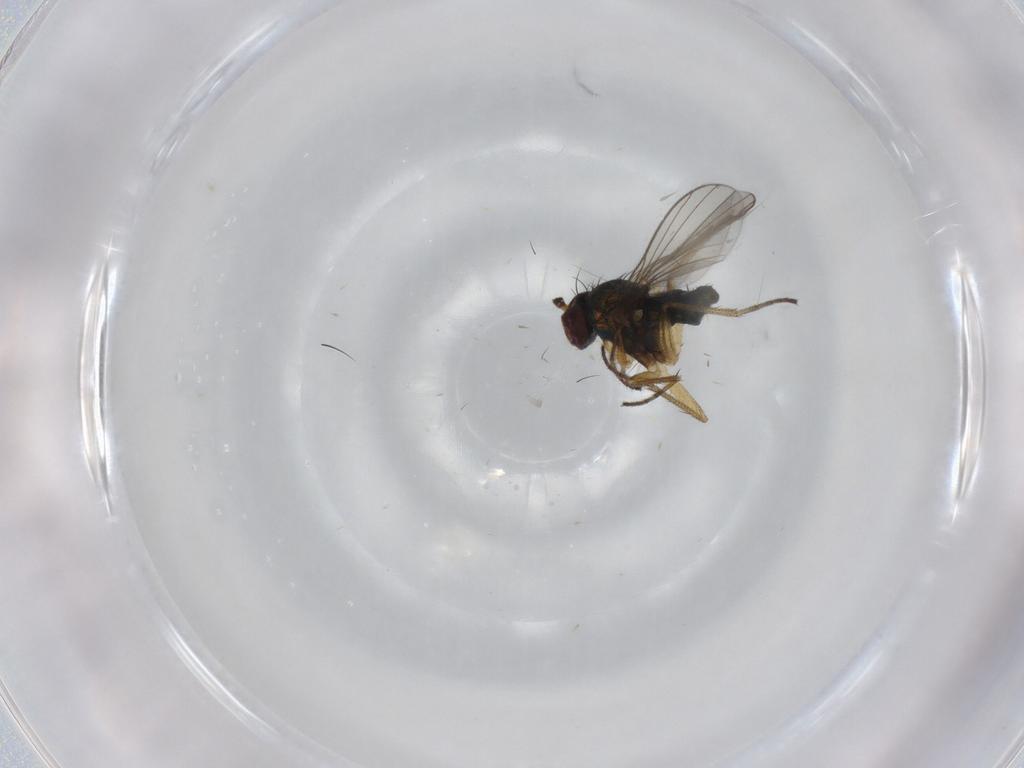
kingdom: Animalia
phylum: Arthropoda
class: Insecta
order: Diptera
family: Dolichopodidae
